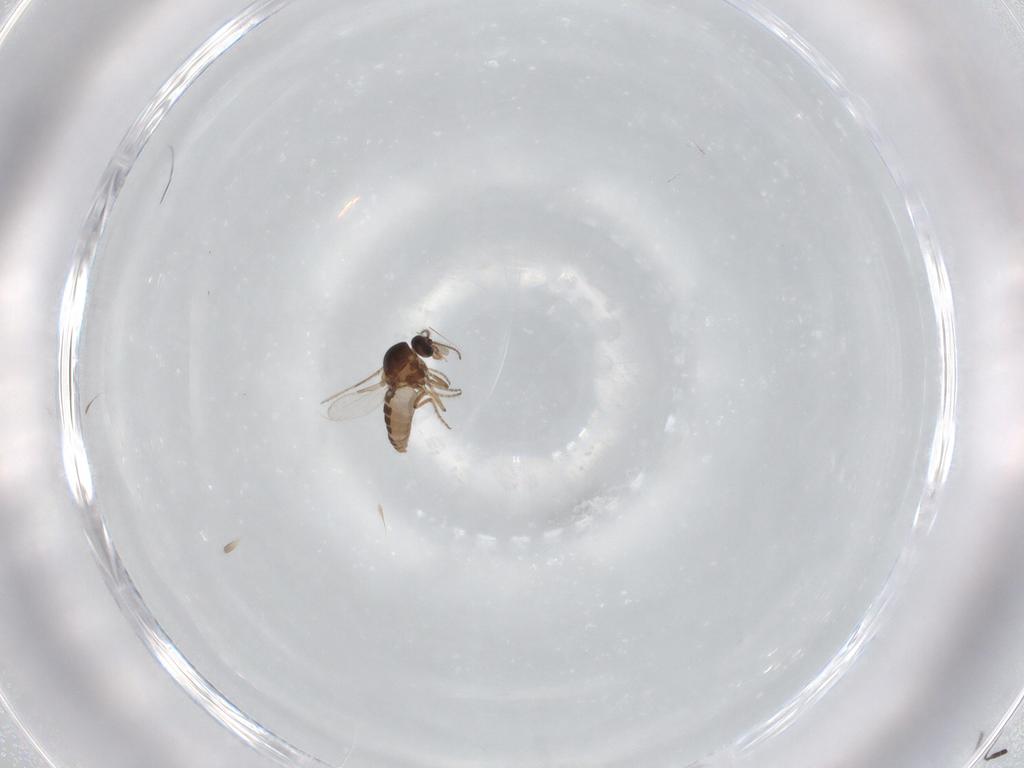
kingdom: Animalia
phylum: Arthropoda
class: Insecta
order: Diptera
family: Ceratopogonidae
